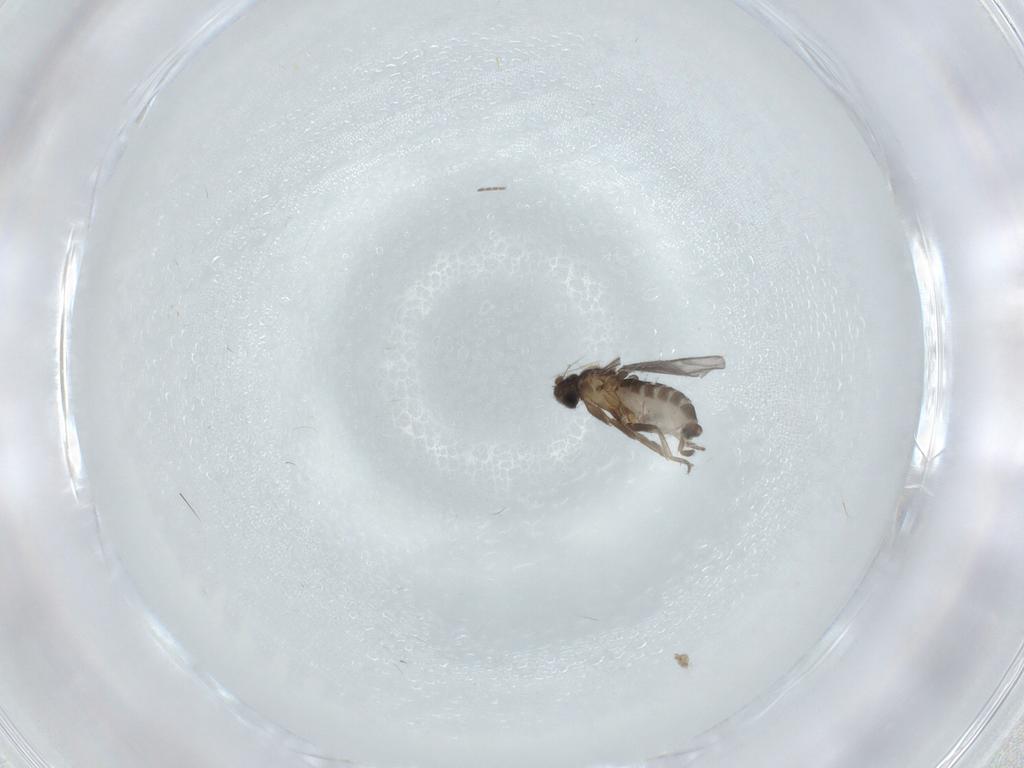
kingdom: Animalia
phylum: Arthropoda
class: Insecta
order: Diptera
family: Phoridae
